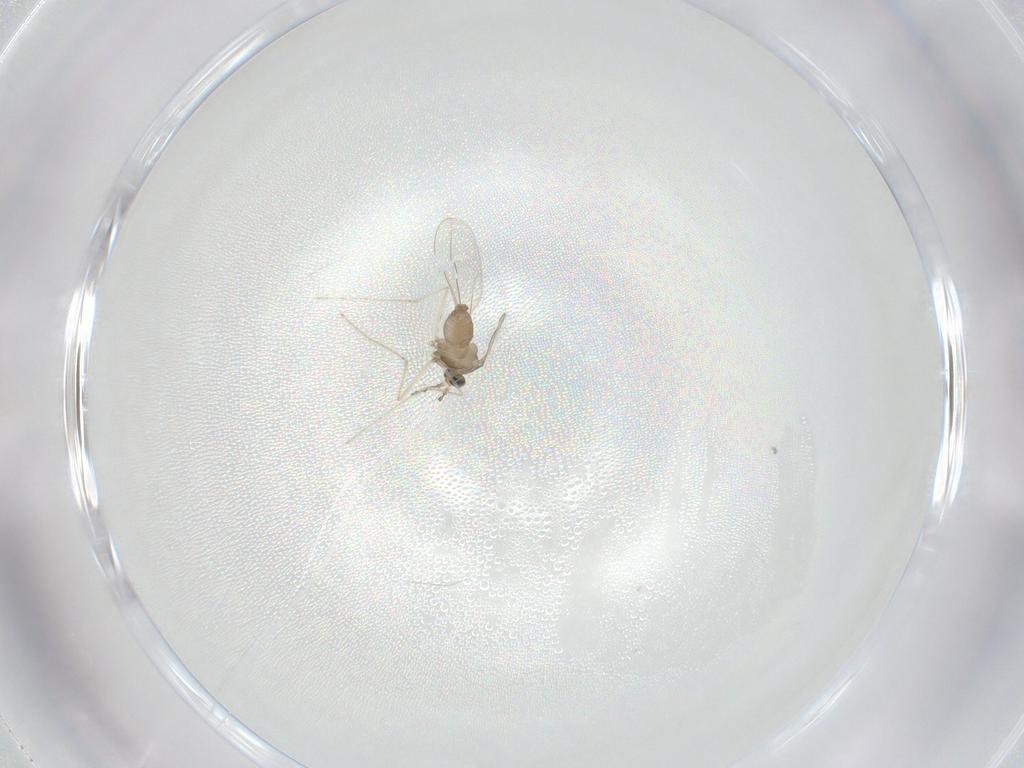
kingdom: Animalia
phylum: Arthropoda
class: Insecta
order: Diptera
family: Cecidomyiidae
